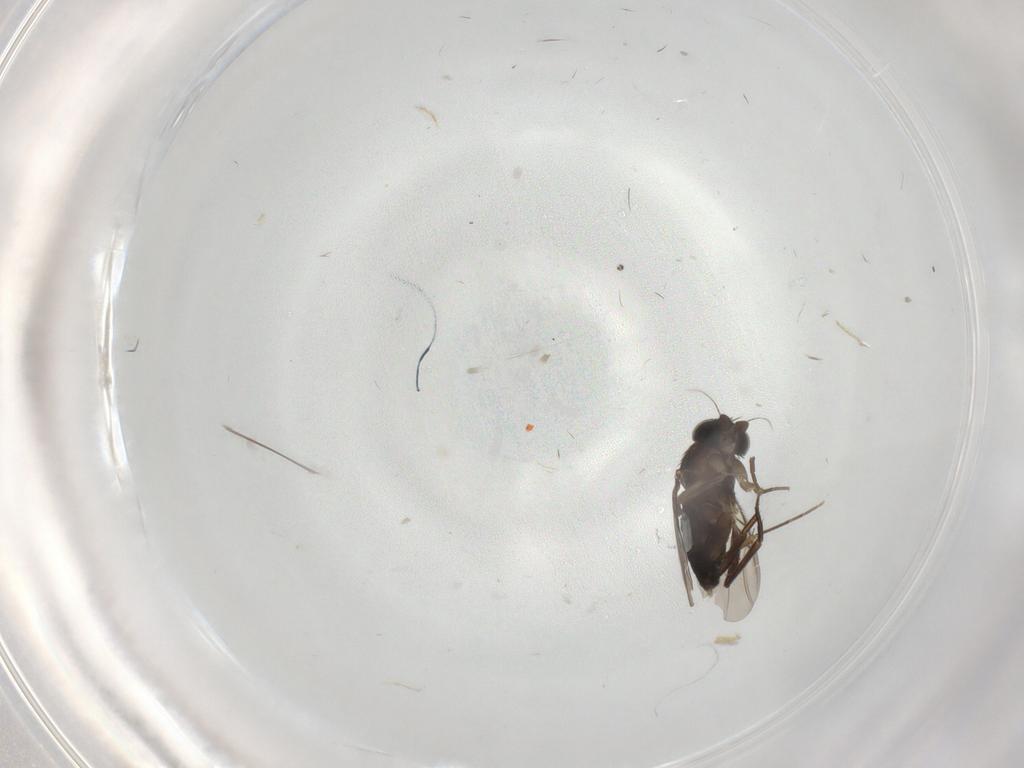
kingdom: Animalia
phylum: Arthropoda
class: Insecta
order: Diptera
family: Phoridae
